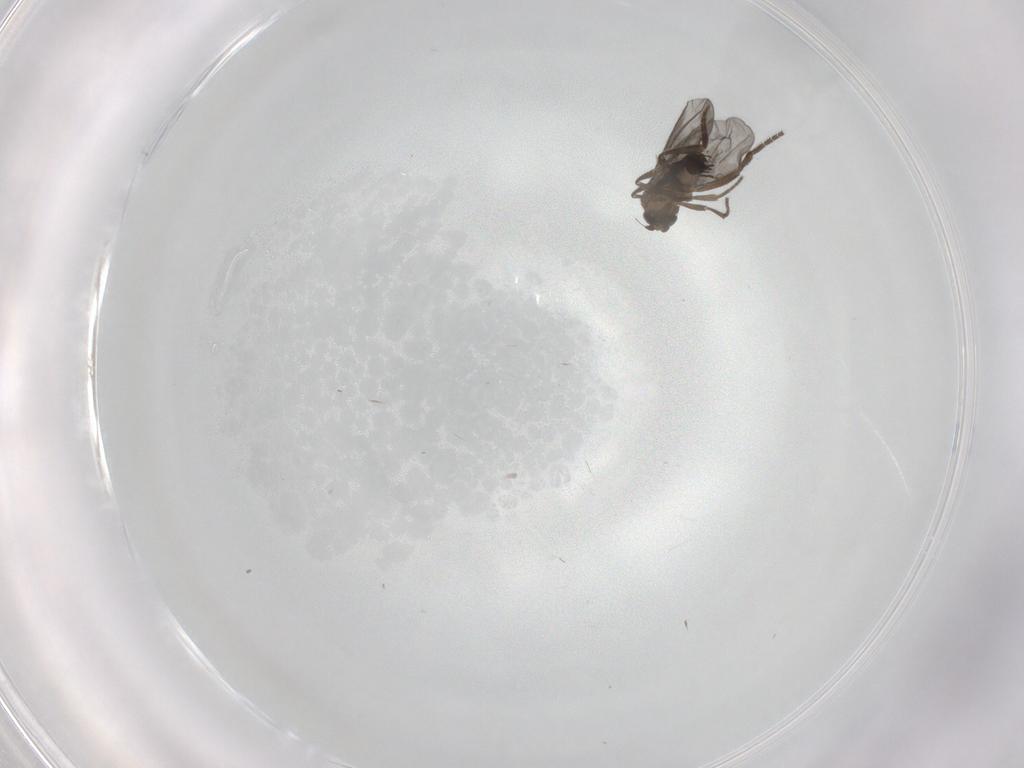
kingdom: Animalia
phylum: Arthropoda
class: Insecta
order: Diptera
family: Phoridae
